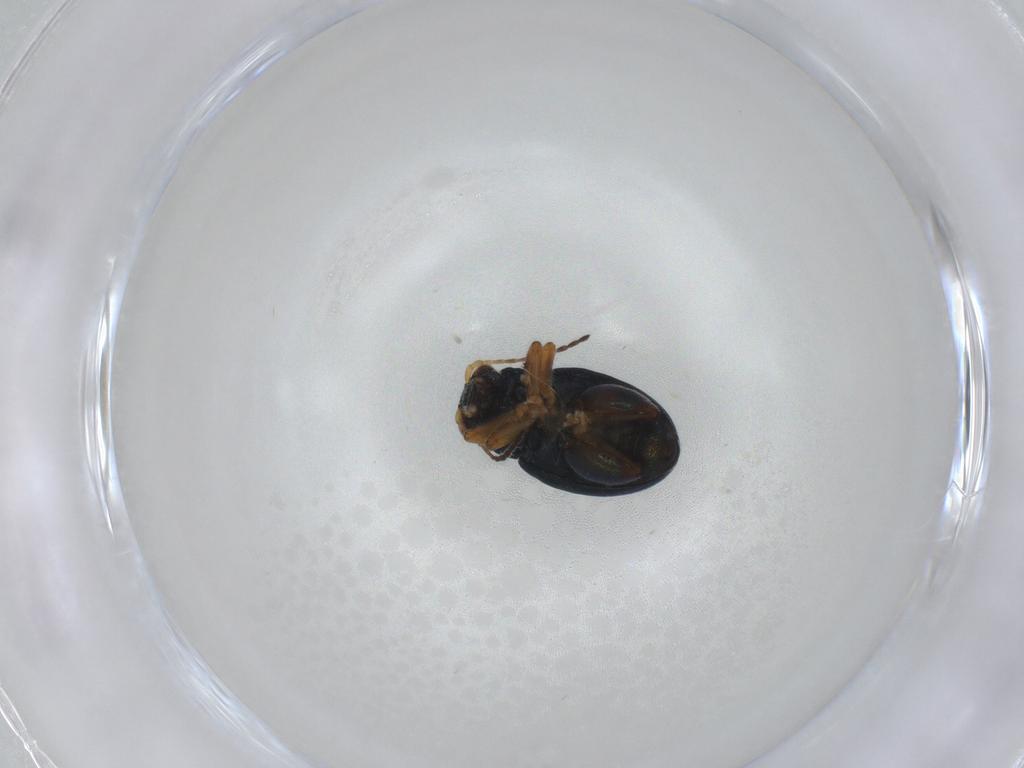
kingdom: Animalia
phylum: Arthropoda
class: Insecta
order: Coleoptera
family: Chrysomelidae
